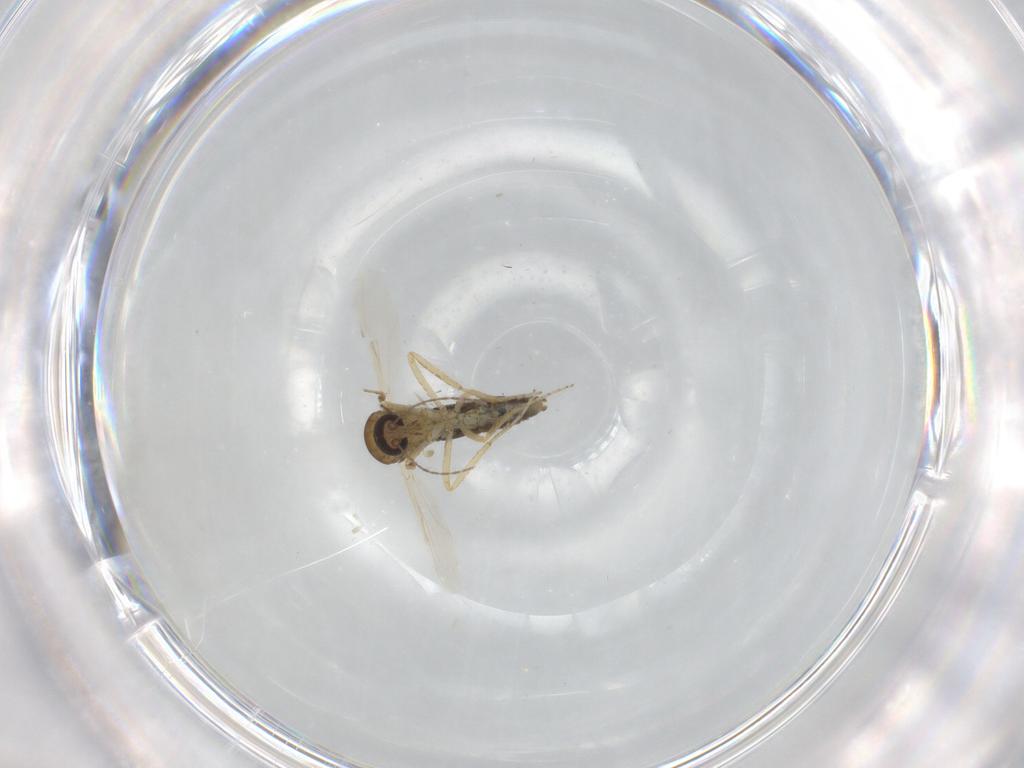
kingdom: Animalia
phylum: Arthropoda
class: Insecta
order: Diptera
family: Ceratopogonidae
